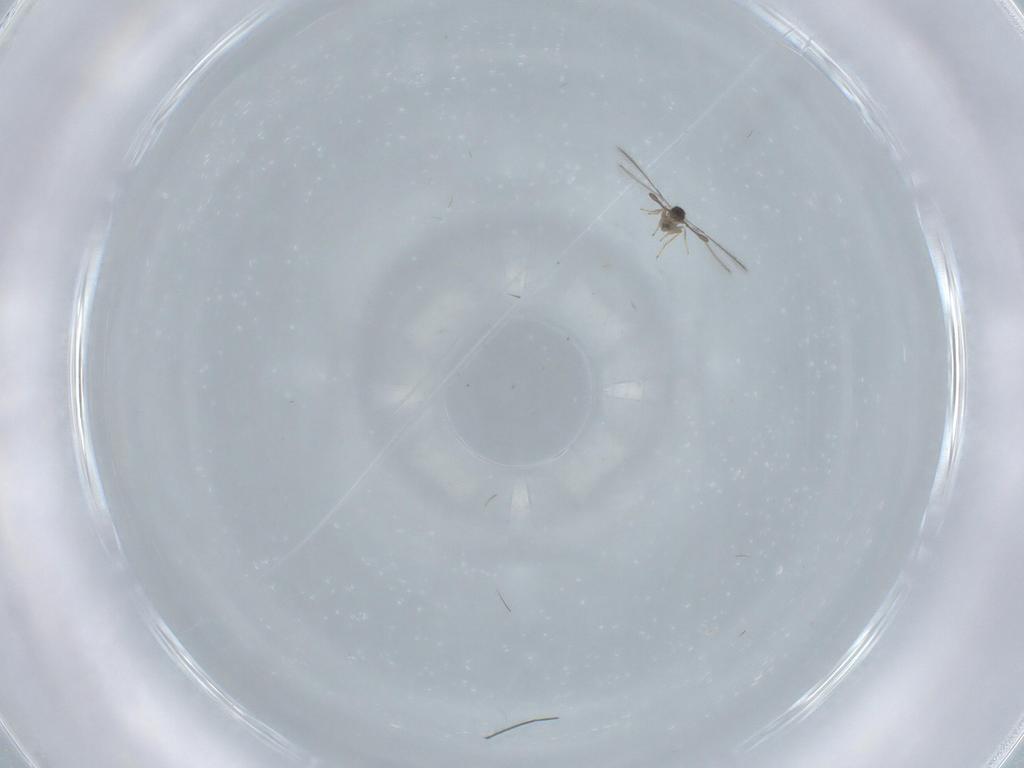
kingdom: Animalia
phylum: Arthropoda
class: Insecta
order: Hymenoptera
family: Mymaridae
